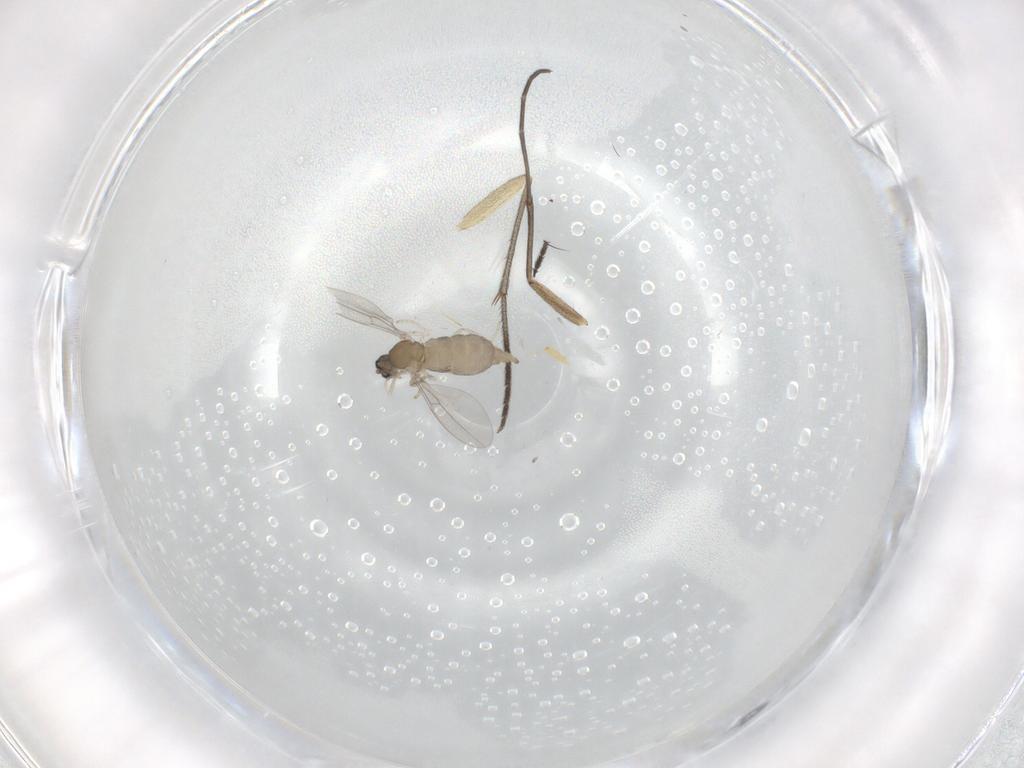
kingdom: Animalia
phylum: Arthropoda
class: Insecta
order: Diptera
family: Cecidomyiidae
